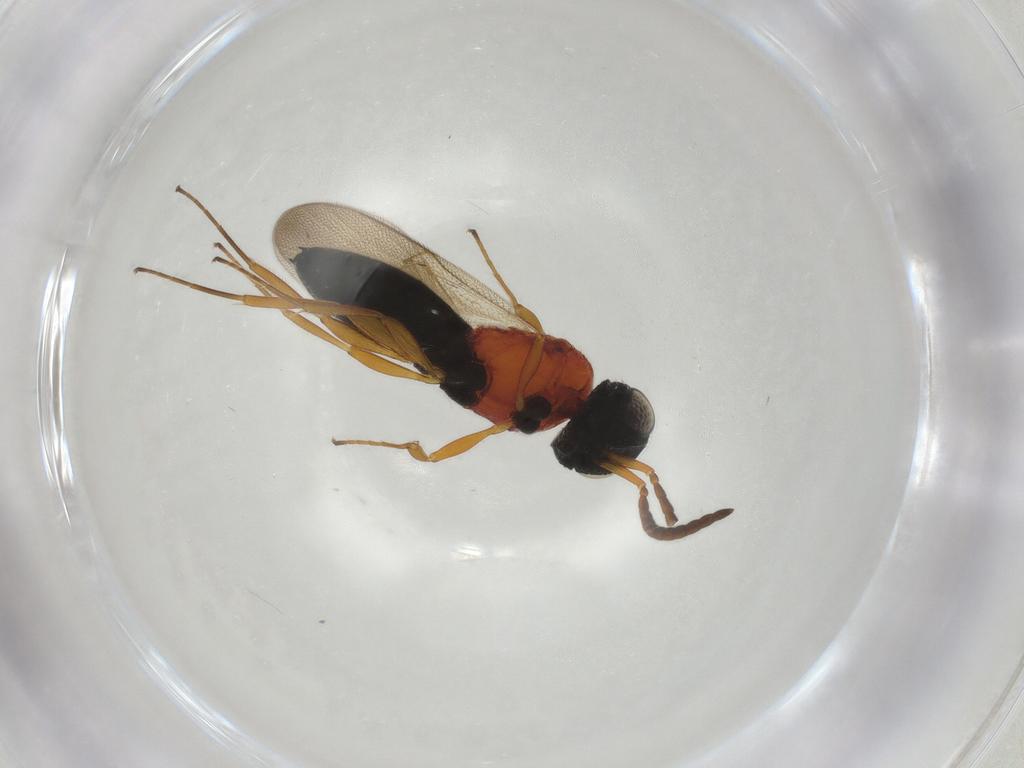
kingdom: Animalia
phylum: Arthropoda
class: Insecta
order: Hymenoptera
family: Scelionidae
